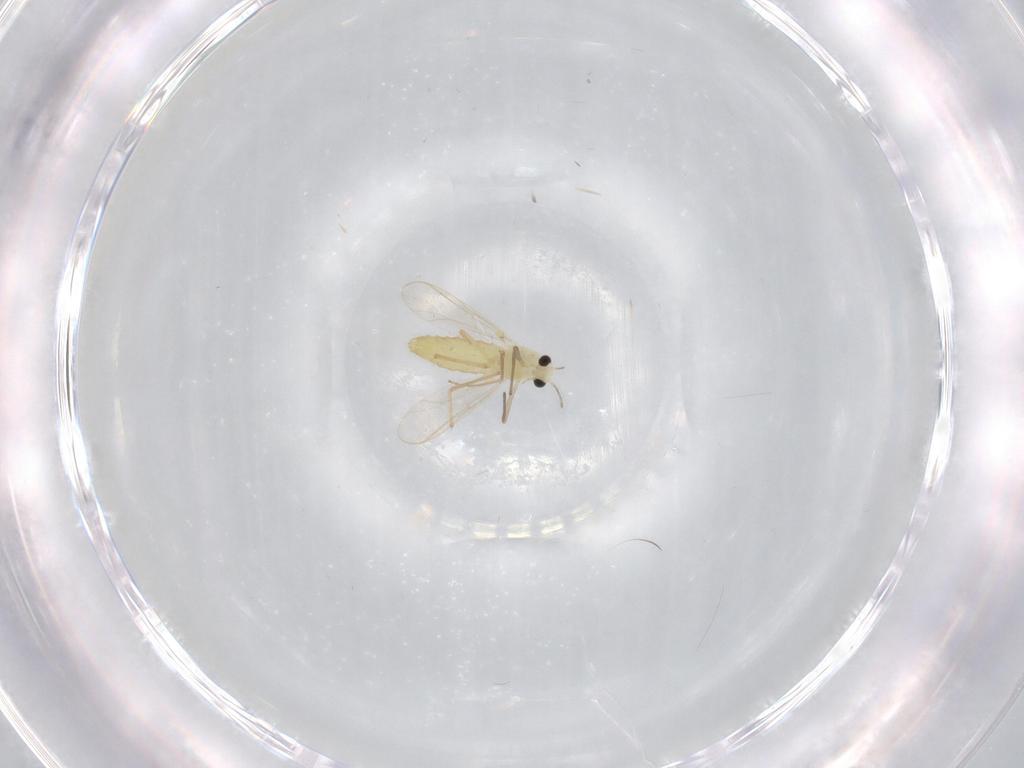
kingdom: Animalia
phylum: Arthropoda
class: Insecta
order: Diptera
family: Chironomidae
